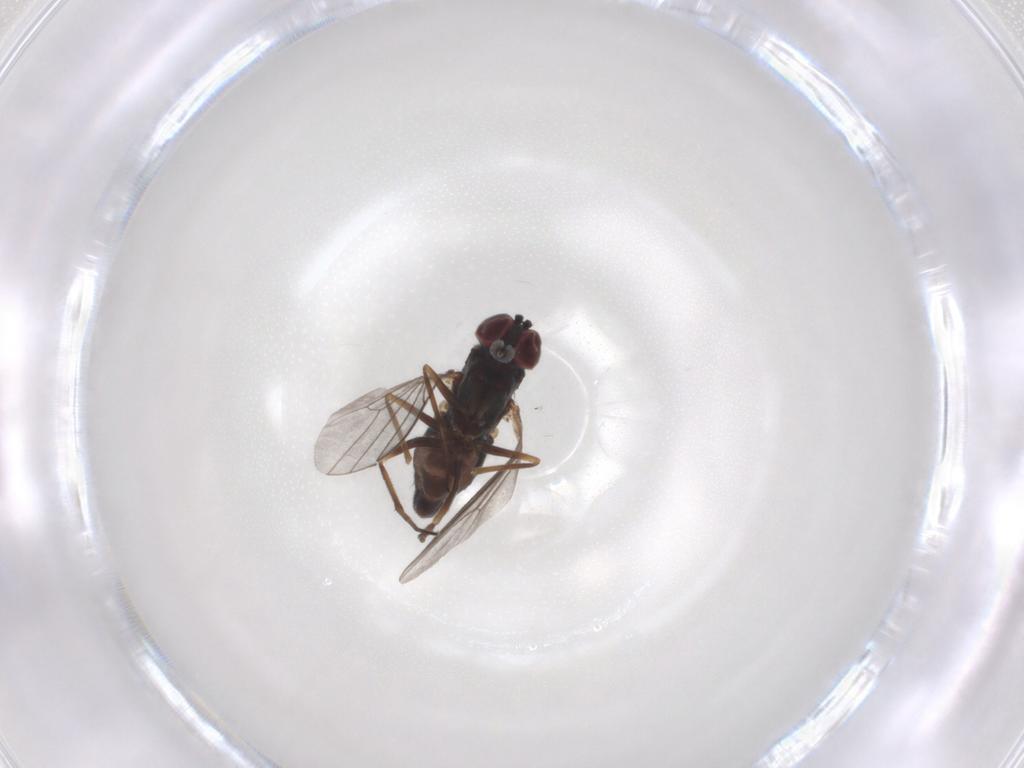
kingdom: Animalia
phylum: Arthropoda
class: Insecta
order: Diptera
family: Dolichopodidae
